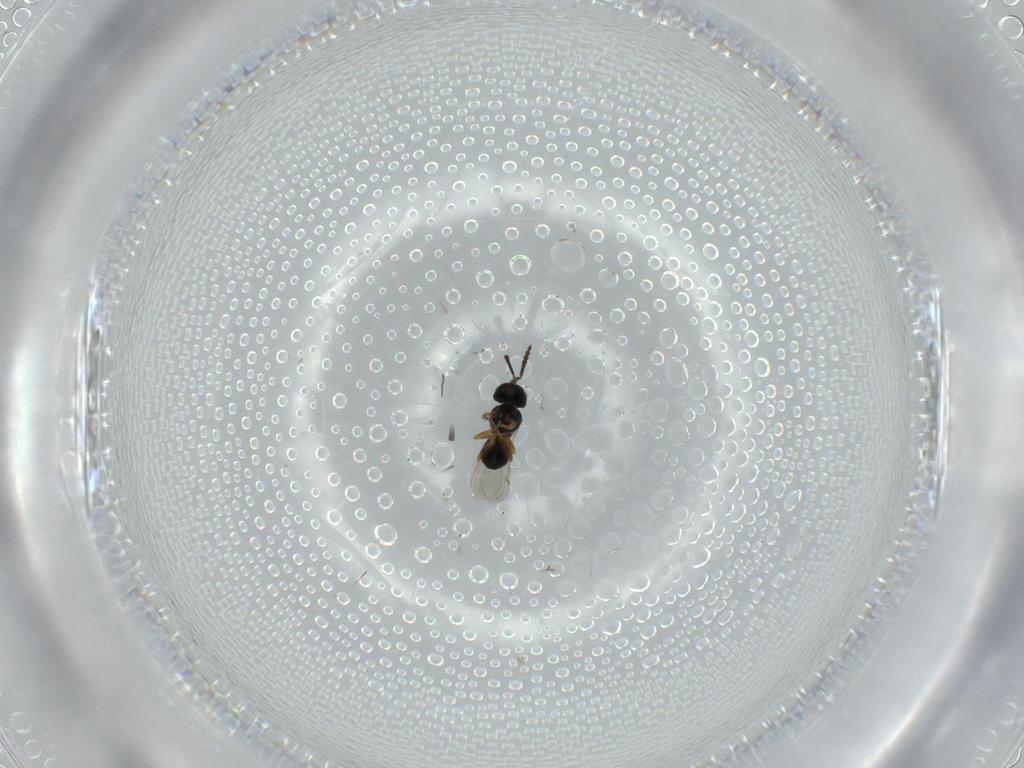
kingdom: Animalia
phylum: Arthropoda
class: Insecta
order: Hymenoptera
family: Scelionidae
